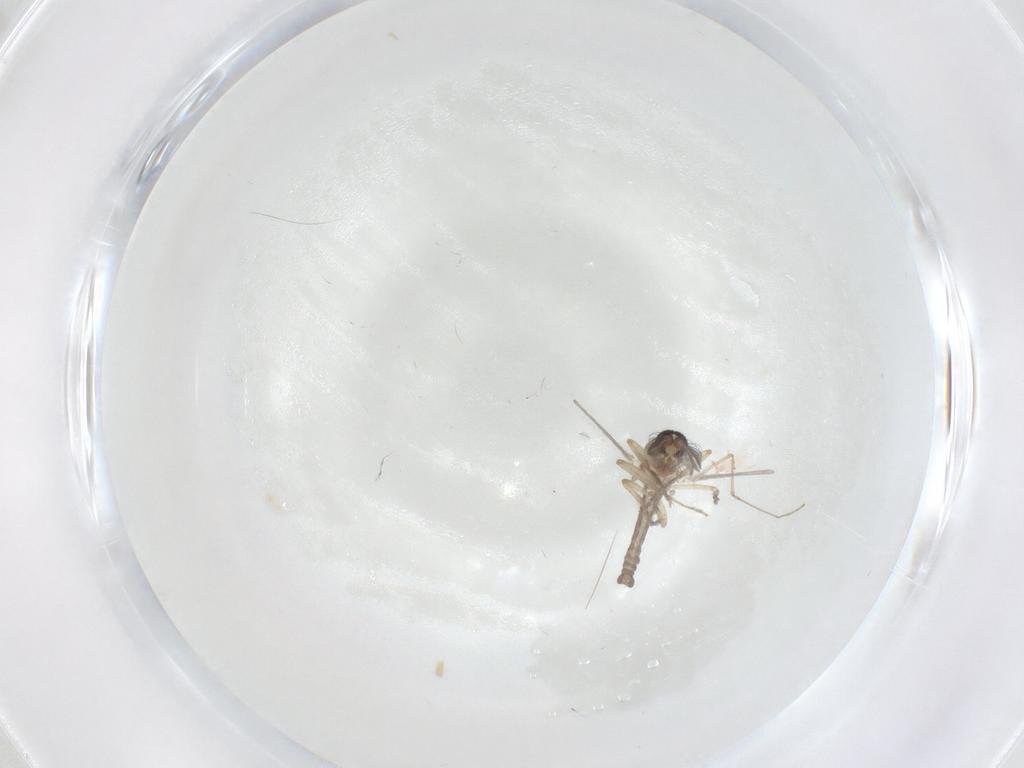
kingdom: Animalia
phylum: Arthropoda
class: Insecta
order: Diptera
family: Ceratopogonidae
